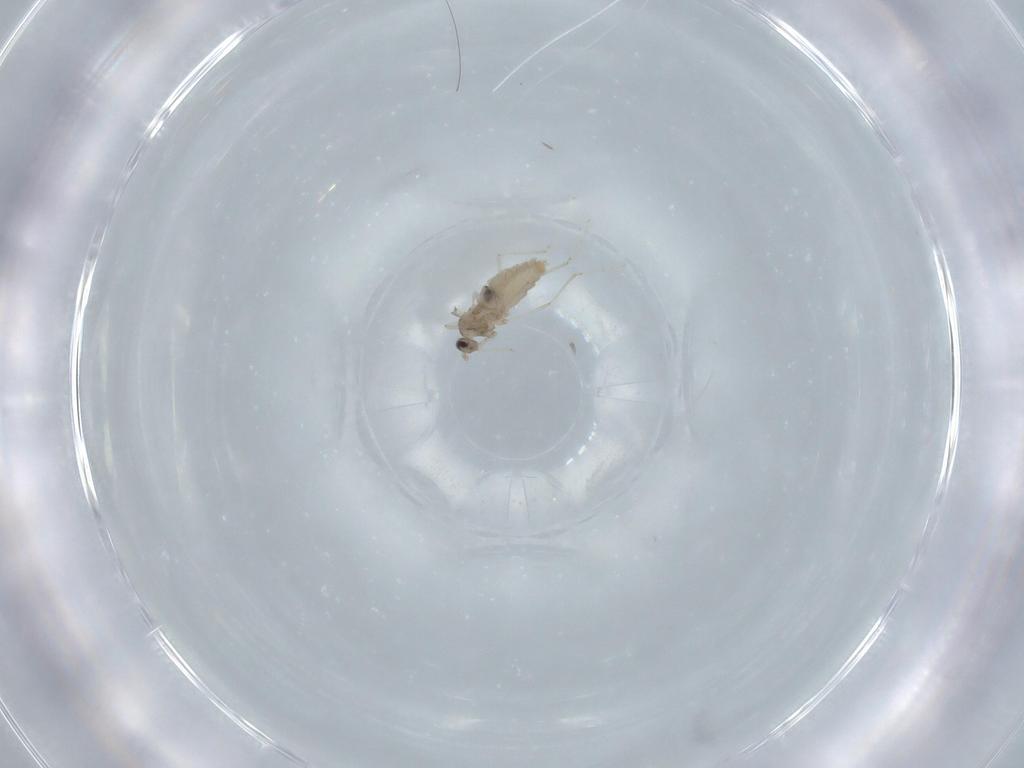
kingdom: Animalia
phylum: Arthropoda
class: Insecta
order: Diptera
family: Cecidomyiidae
